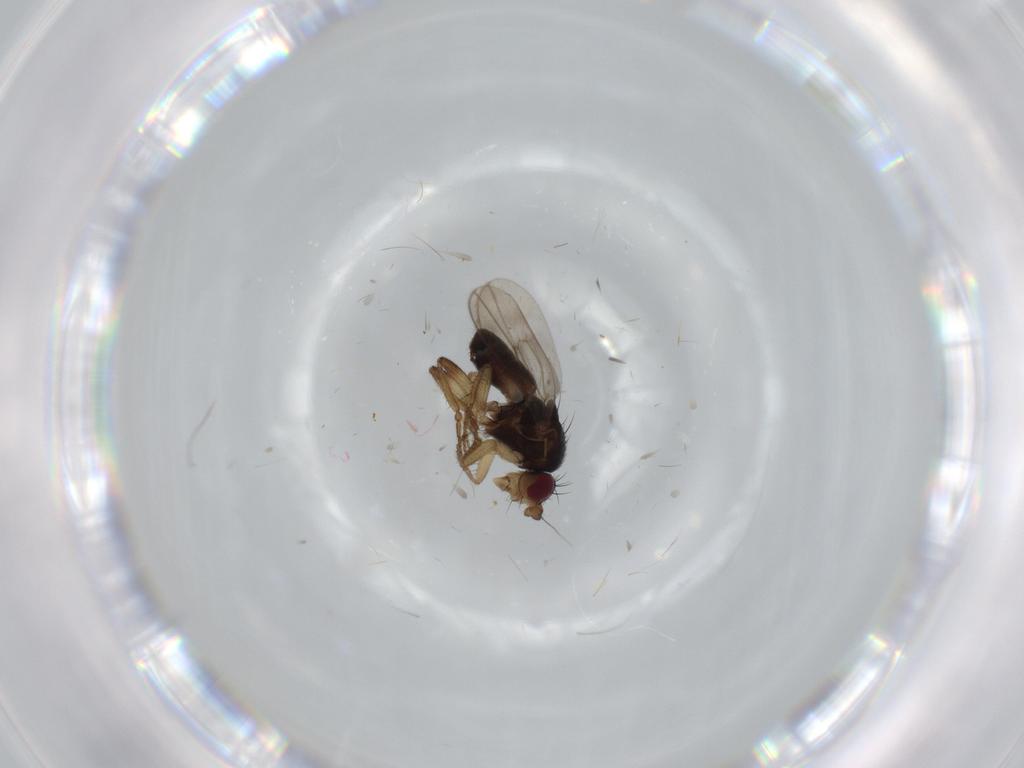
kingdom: Animalia
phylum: Arthropoda
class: Insecta
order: Diptera
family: Sphaeroceridae
